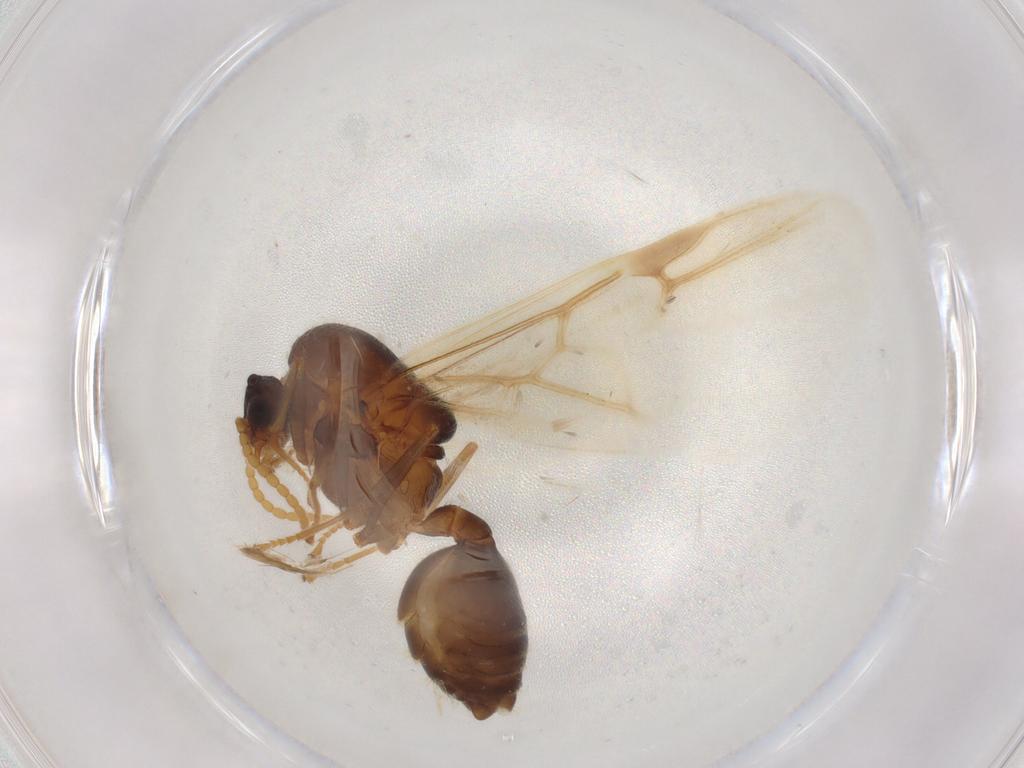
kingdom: Animalia
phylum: Arthropoda
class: Insecta
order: Hymenoptera
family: Formicidae
